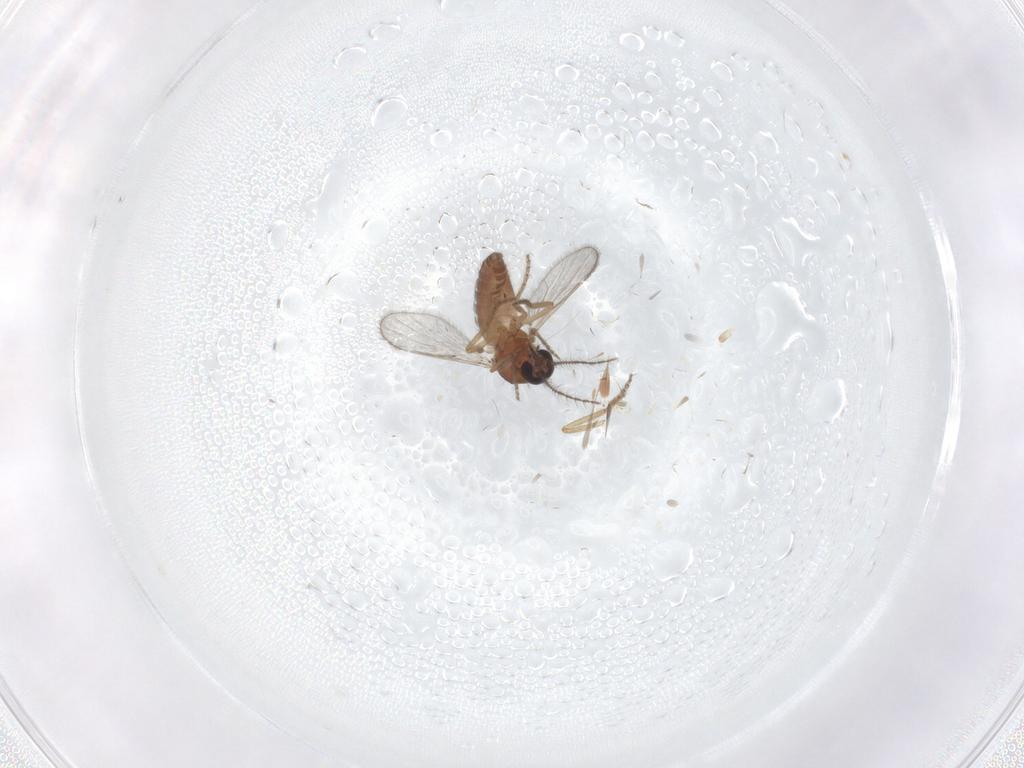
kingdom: Animalia
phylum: Arthropoda
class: Insecta
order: Diptera
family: Ceratopogonidae
